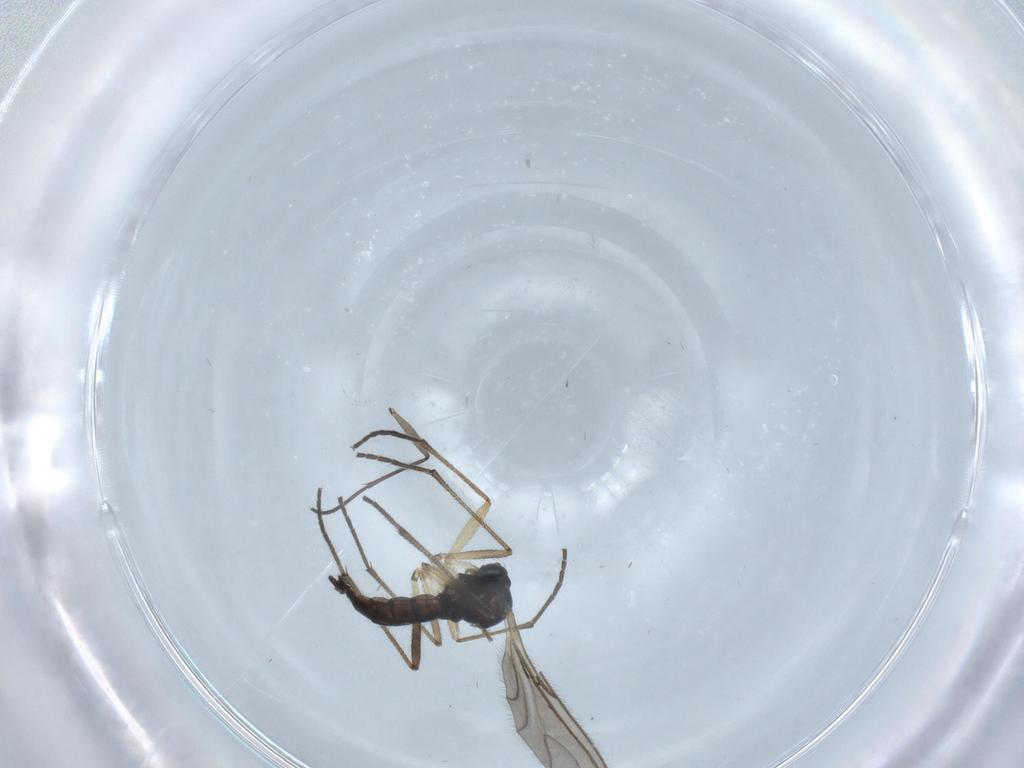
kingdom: Animalia
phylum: Arthropoda
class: Insecta
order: Diptera
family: Sciaridae
